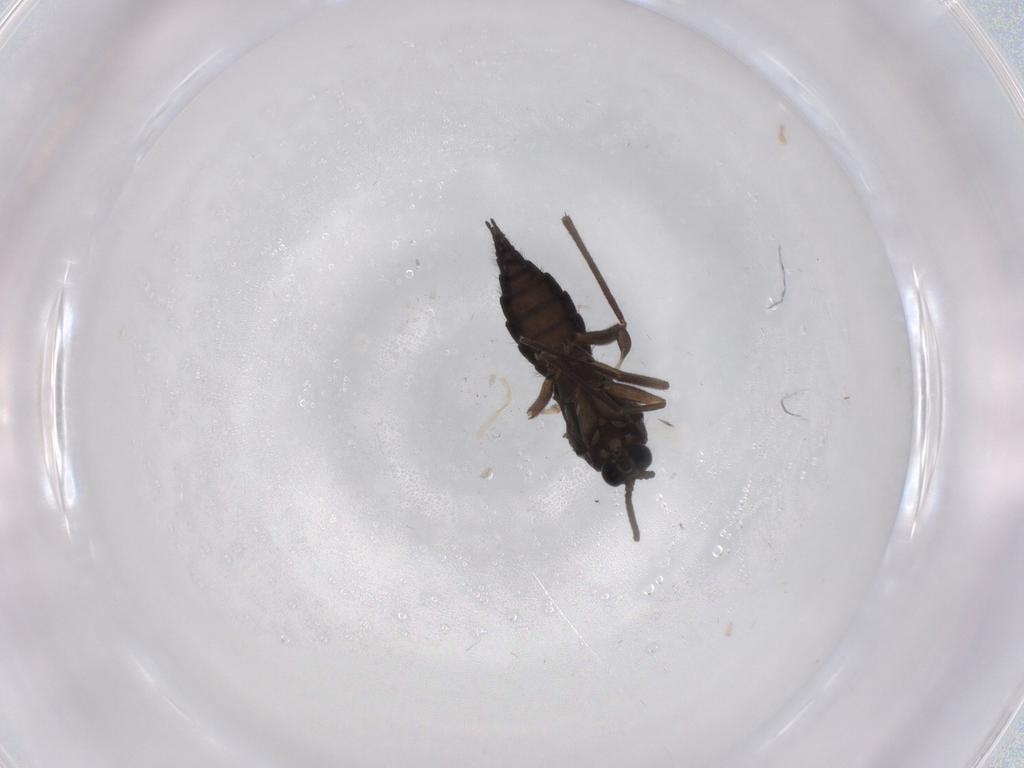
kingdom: Animalia
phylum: Arthropoda
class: Insecta
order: Diptera
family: Sciaridae
